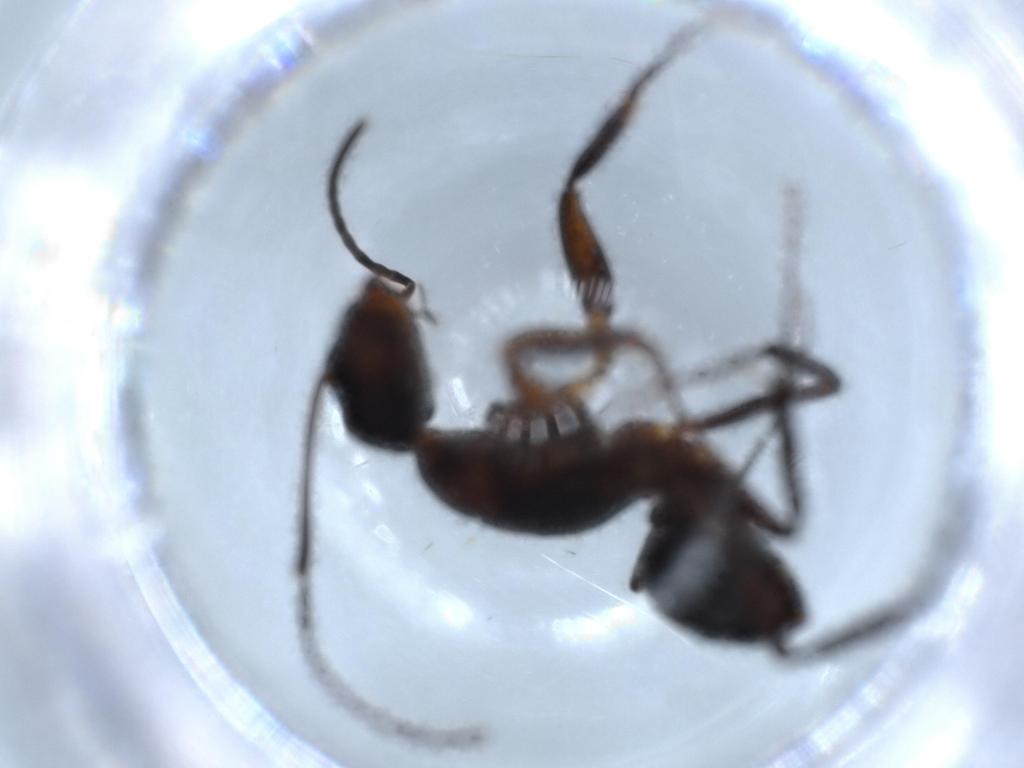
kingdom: Animalia
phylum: Arthropoda
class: Insecta
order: Hymenoptera
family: Formicidae
